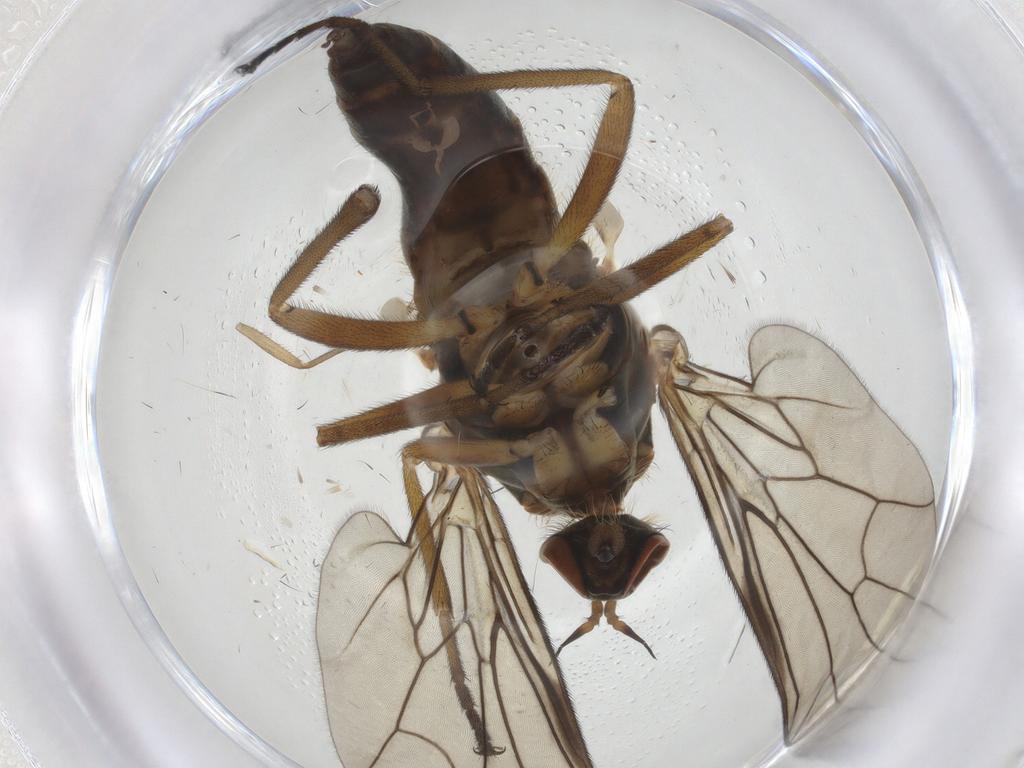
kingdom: Animalia
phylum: Arthropoda
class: Insecta
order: Diptera
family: Empididae
